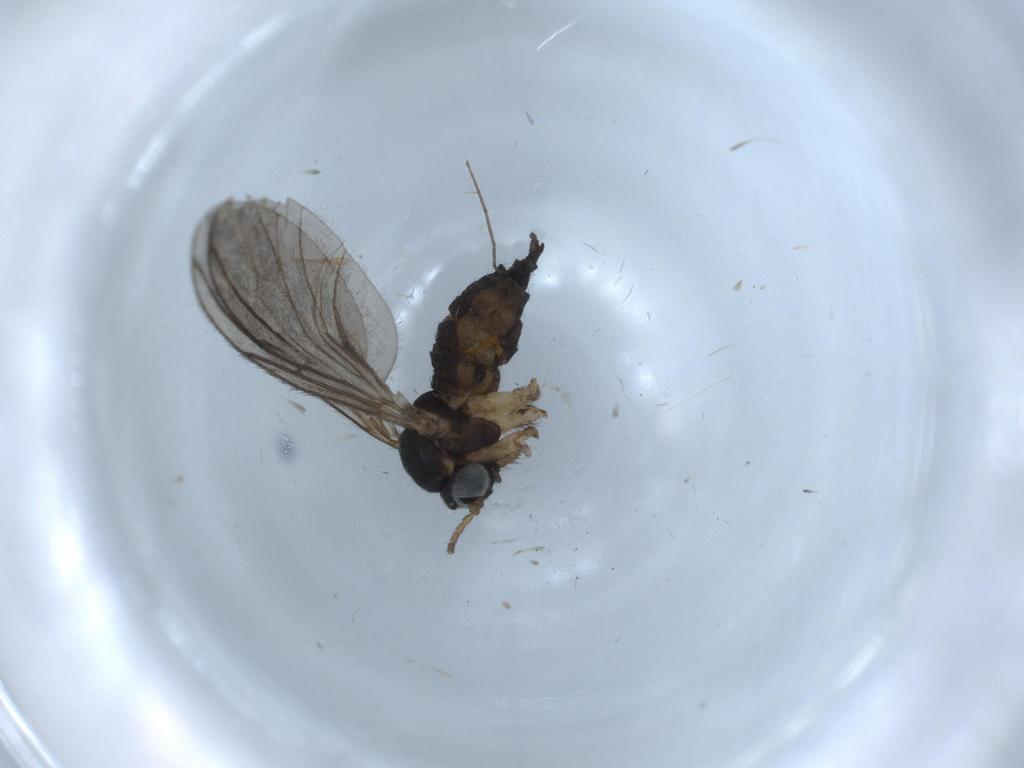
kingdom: Animalia
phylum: Arthropoda
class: Insecta
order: Diptera
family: Sciaridae
